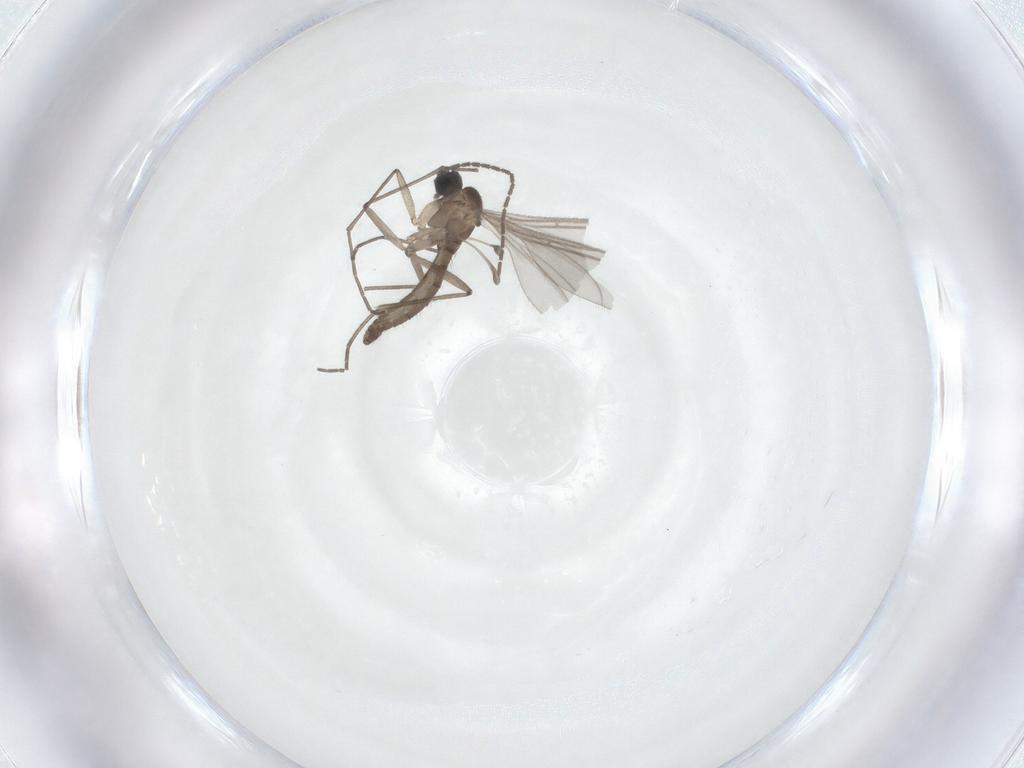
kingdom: Animalia
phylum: Arthropoda
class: Insecta
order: Diptera
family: Sciaridae
